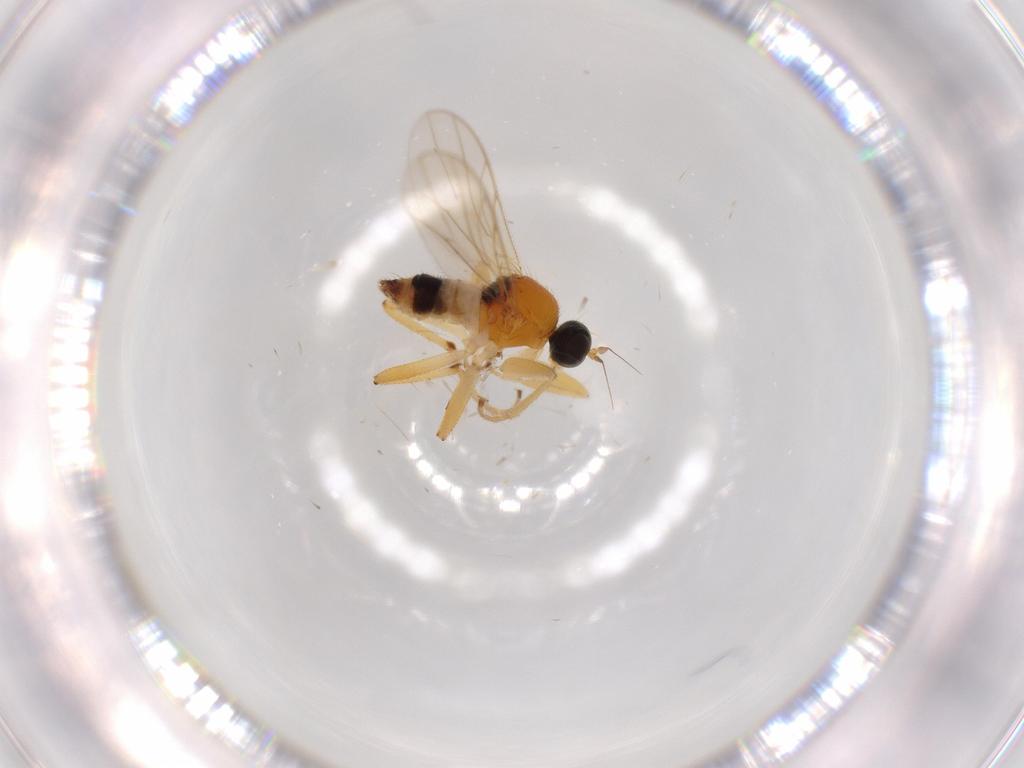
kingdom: Animalia
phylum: Arthropoda
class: Insecta
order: Diptera
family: Hybotidae
